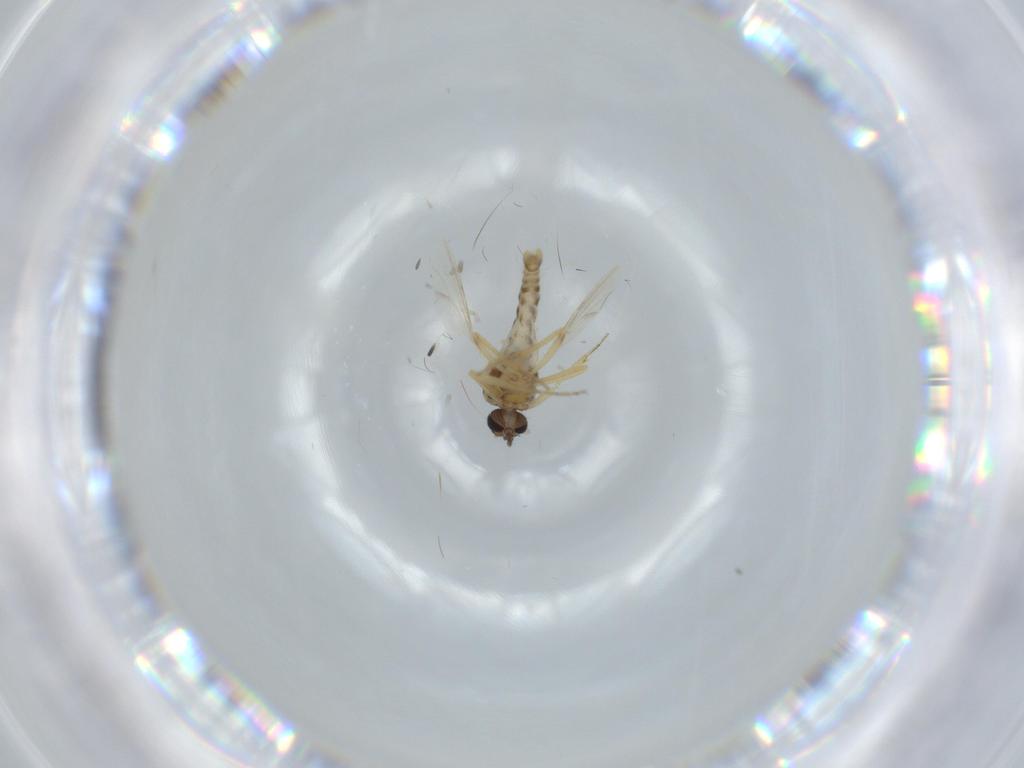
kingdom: Animalia
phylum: Arthropoda
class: Insecta
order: Diptera
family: Ceratopogonidae
